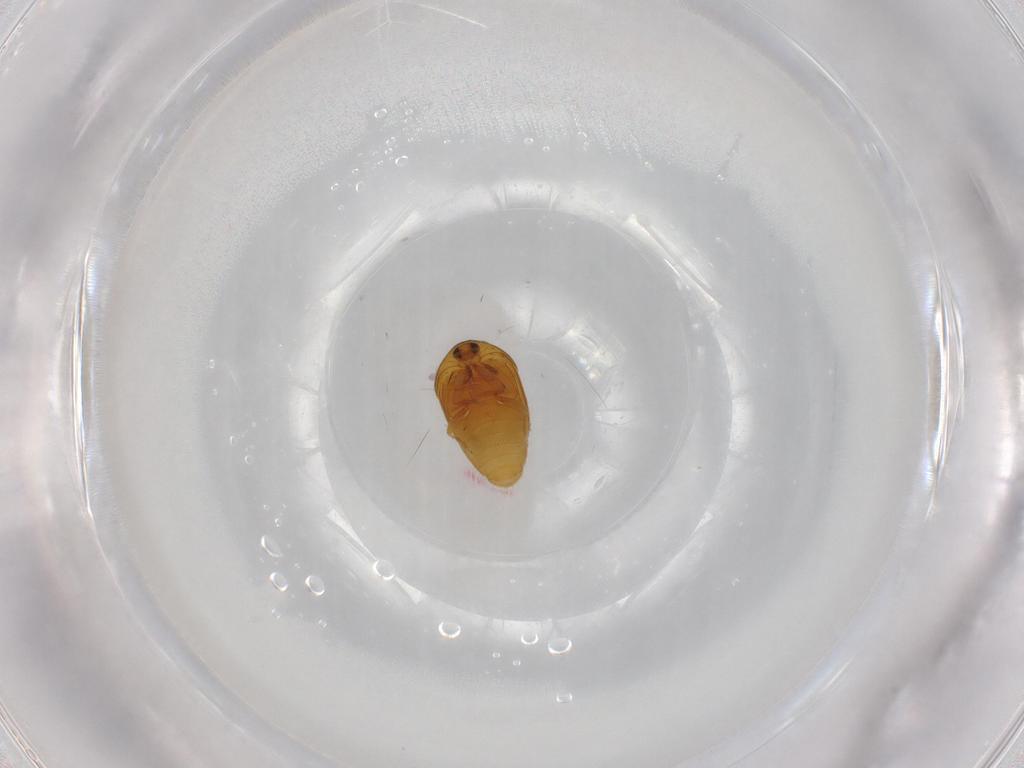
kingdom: Animalia
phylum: Arthropoda
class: Insecta
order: Coleoptera
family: Corylophidae
